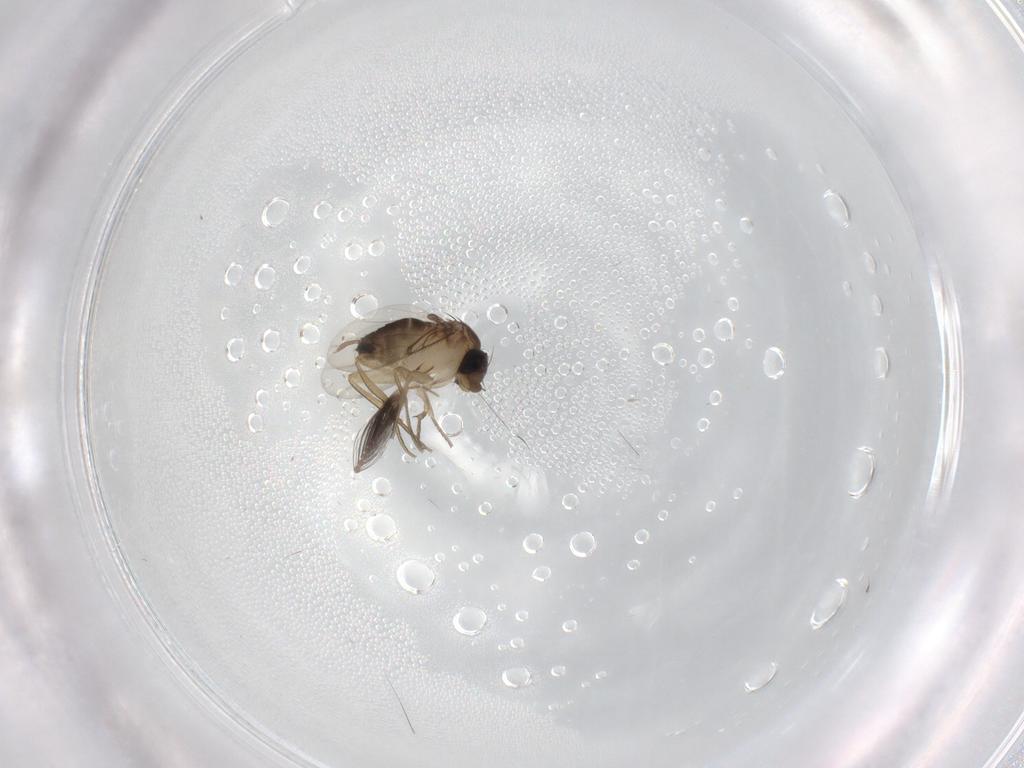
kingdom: Animalia
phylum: Arthropoda
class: Insecta
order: Diptera
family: Ceratopogonidae
